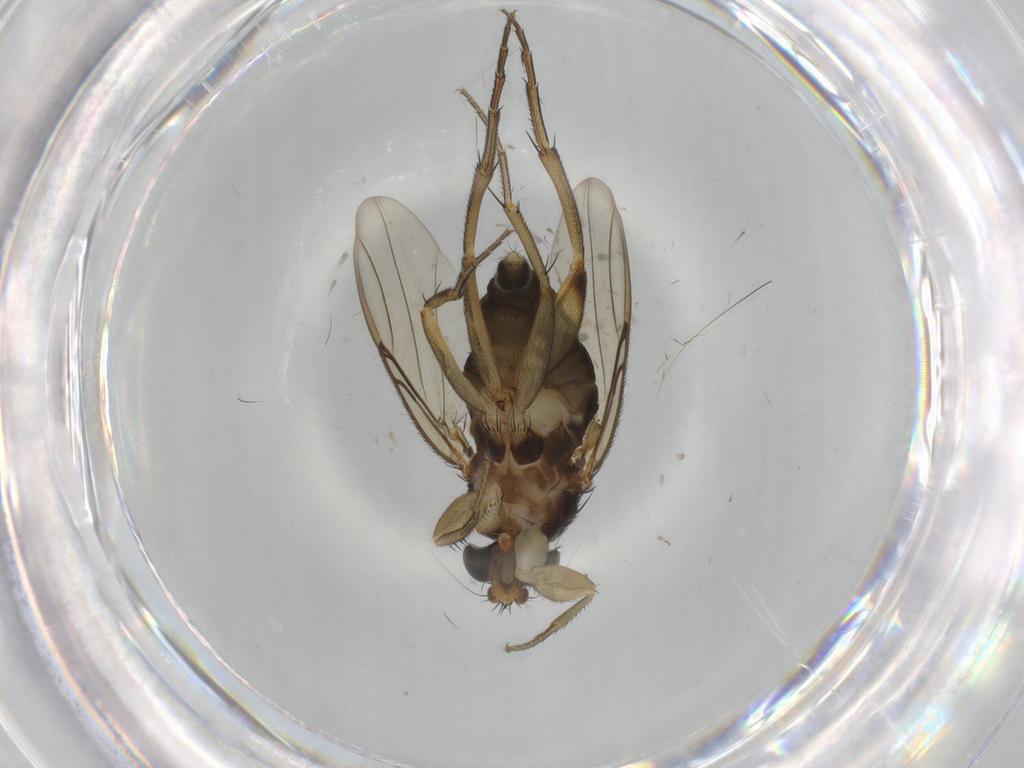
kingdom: Animalia
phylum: Arthropoda
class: Insecta
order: Diptera
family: Phoridae
